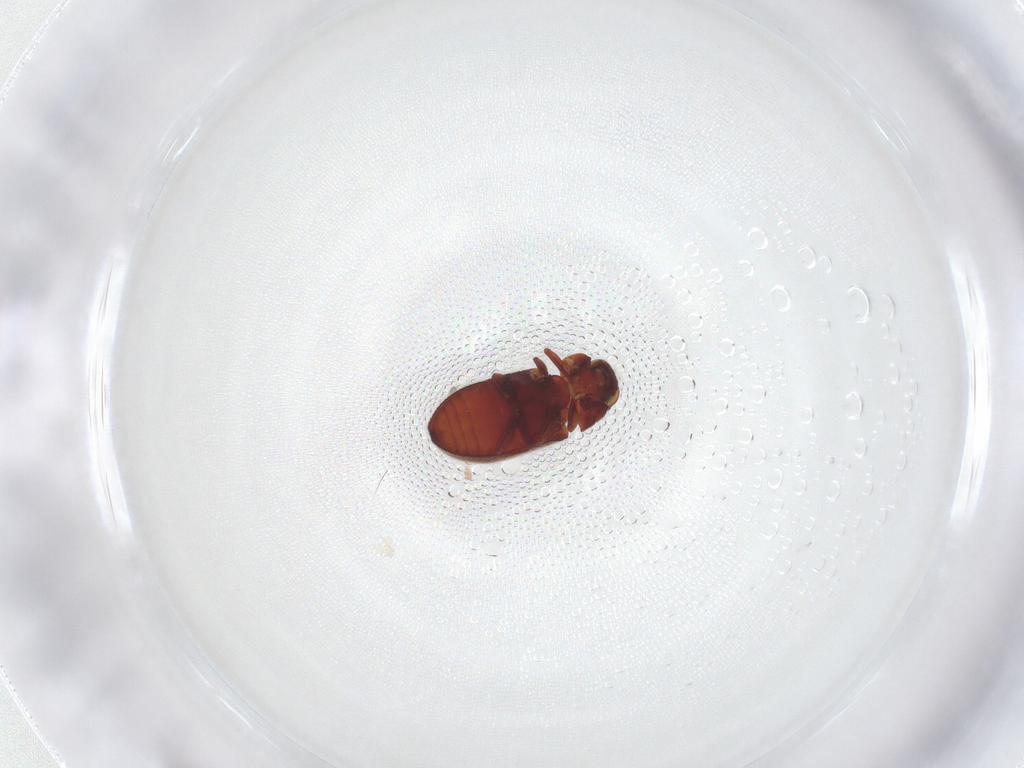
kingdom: Animalia
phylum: Arthropoda
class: Insecta
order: Coleoptera
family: Ptinidae
